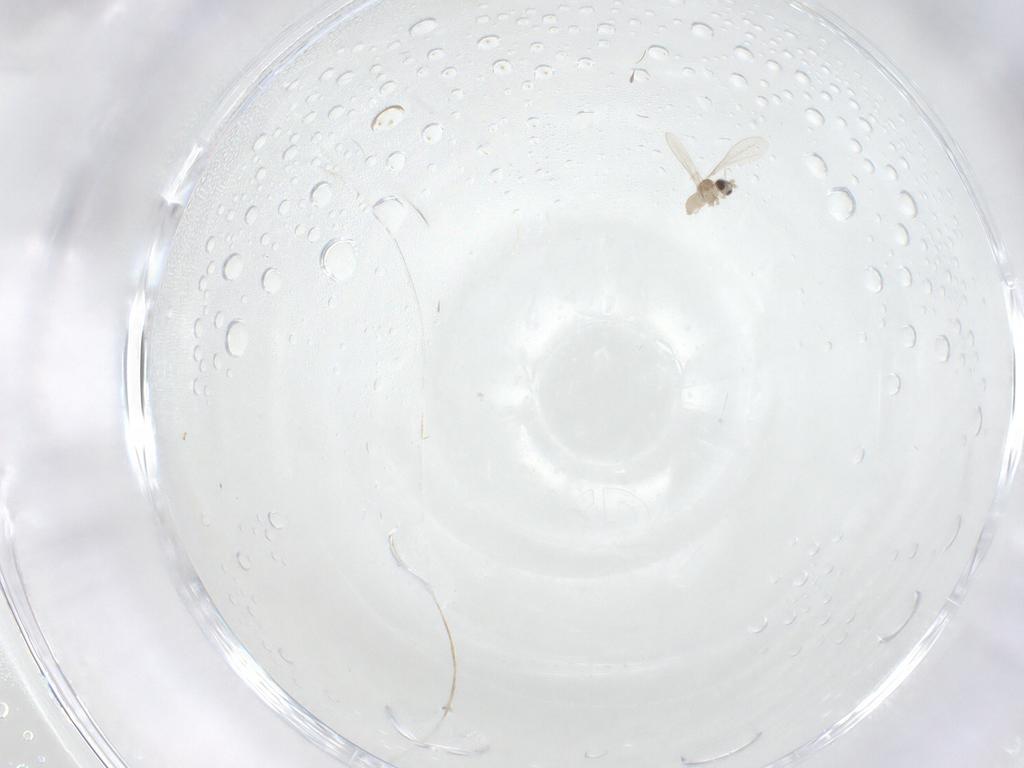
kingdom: Animalia
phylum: Arthropoda
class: Insecta
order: Diptera
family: Cecidomyiidae
